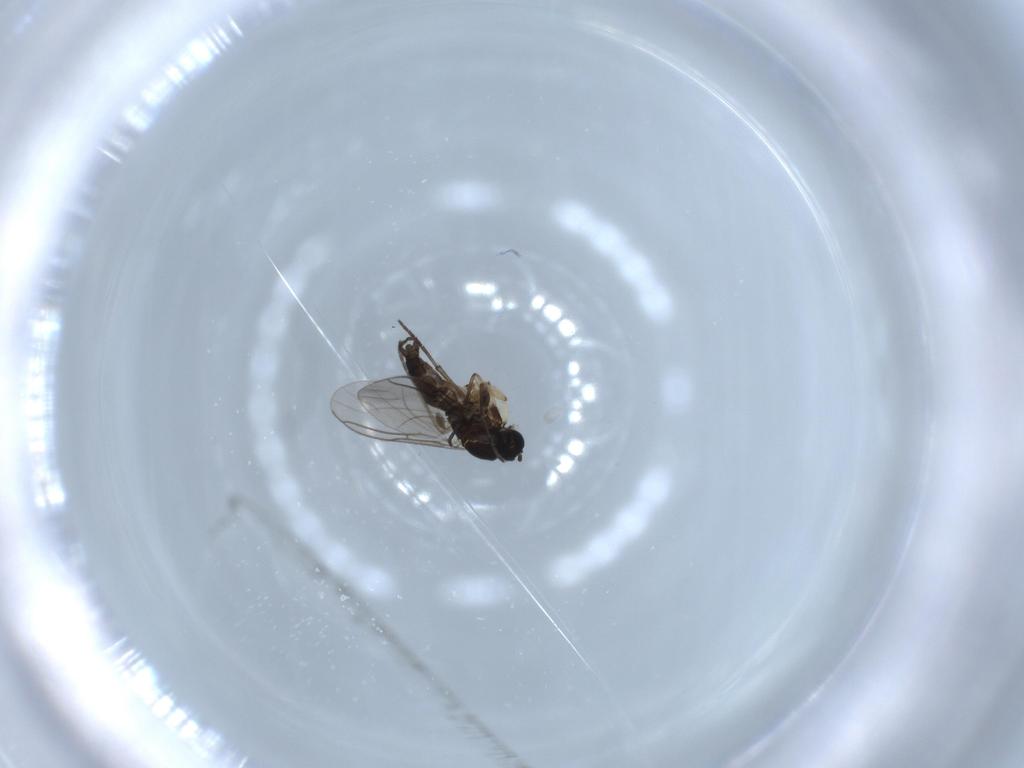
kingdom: Animalia
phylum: Arthropoda
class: Insecta
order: Diptera
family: Sciaridae
